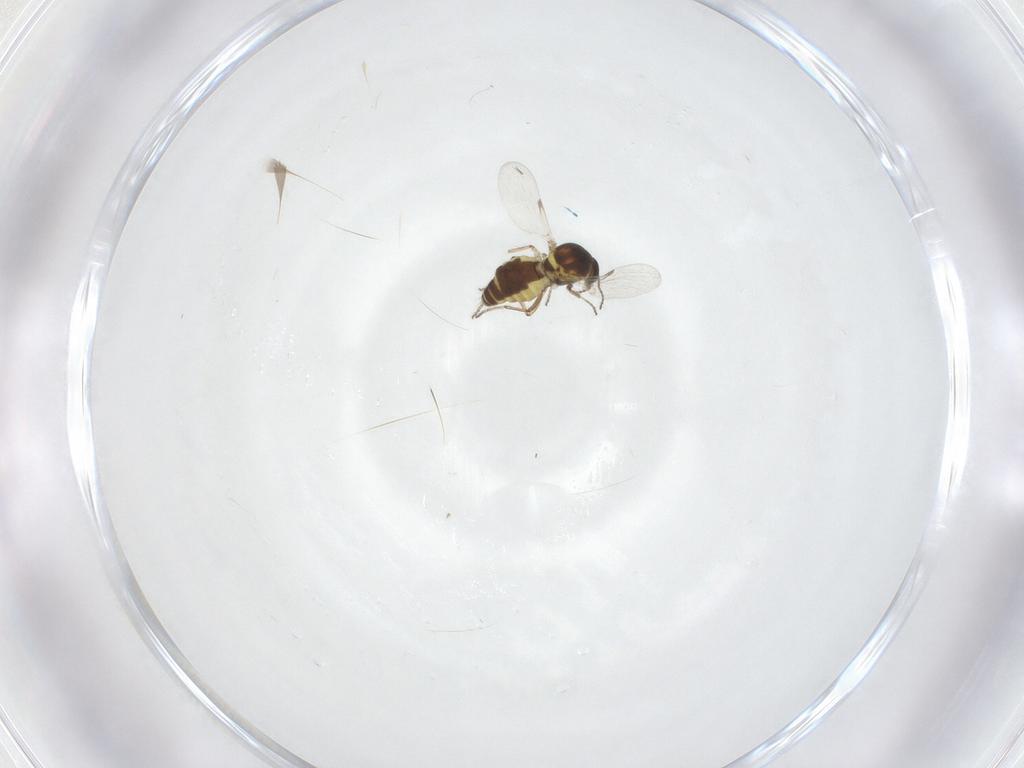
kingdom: Animalia
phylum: Arthropoda
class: Insecta
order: Diptera
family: Ceratopogonidae
